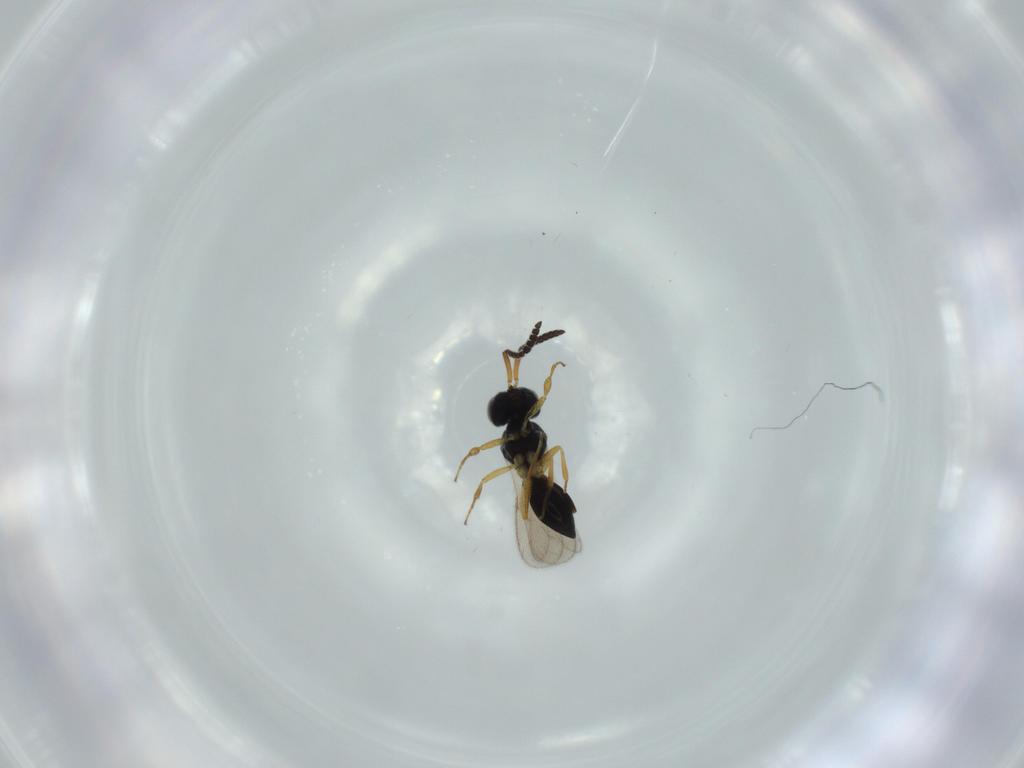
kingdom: Animalia
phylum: Arthropoda
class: Insecta
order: Hymenoptera
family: Scelionidae
